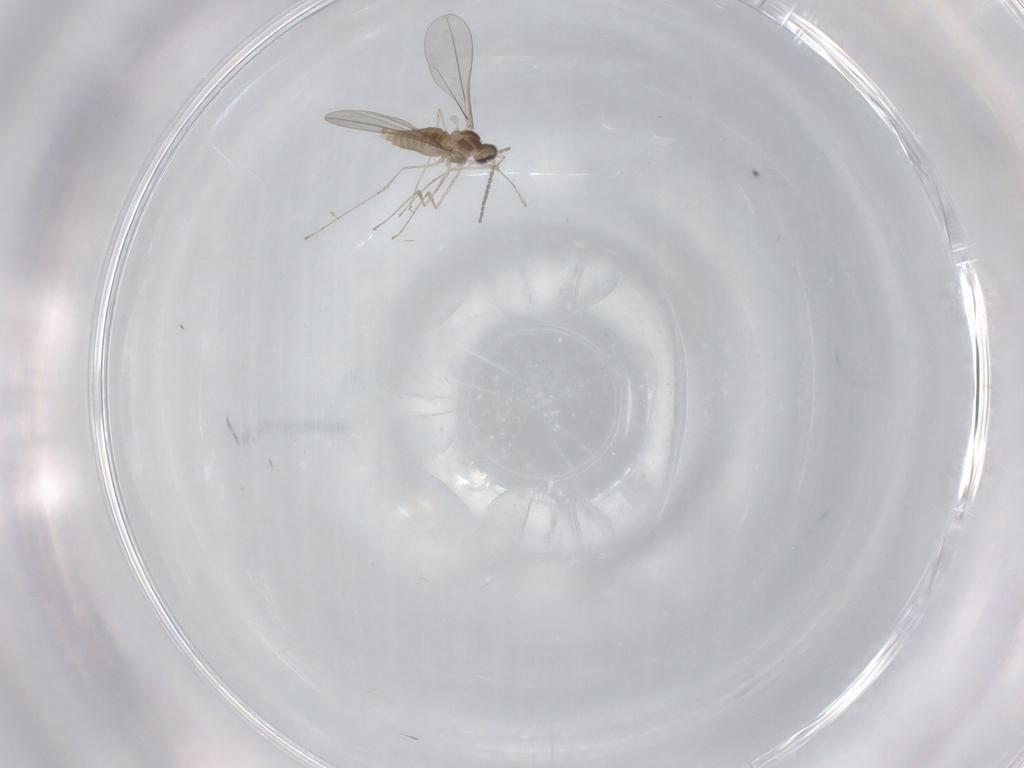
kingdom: Animalia
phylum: Arthropoda
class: Insecta
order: Diptera
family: Cecidomyiidae
